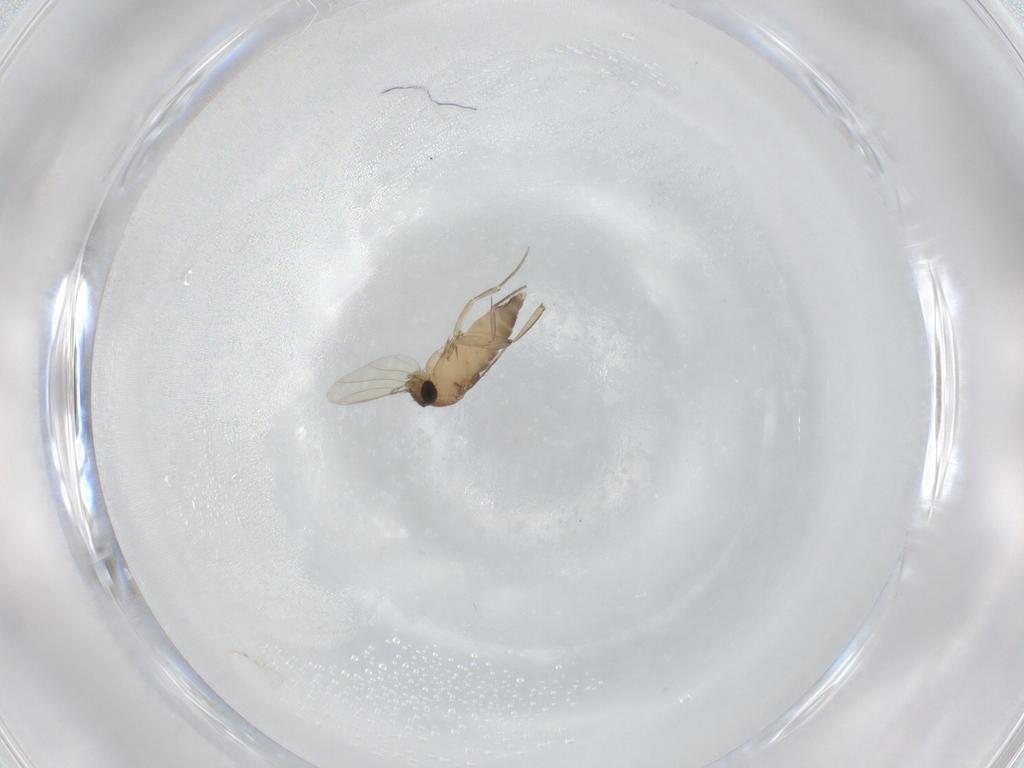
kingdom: Animalia
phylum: Arthropoda
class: Insecta
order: Diptera
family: Phoridae
